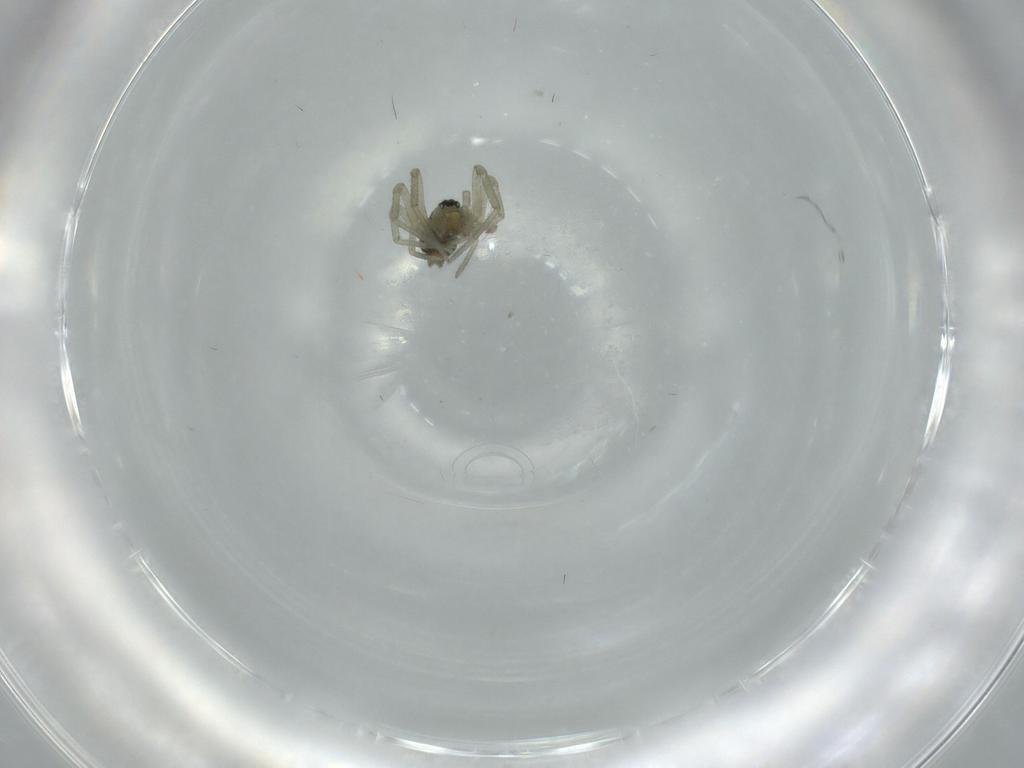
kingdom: Animalia
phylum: Arthropoda
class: Arachnida
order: Araneae
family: Linyphiidae
